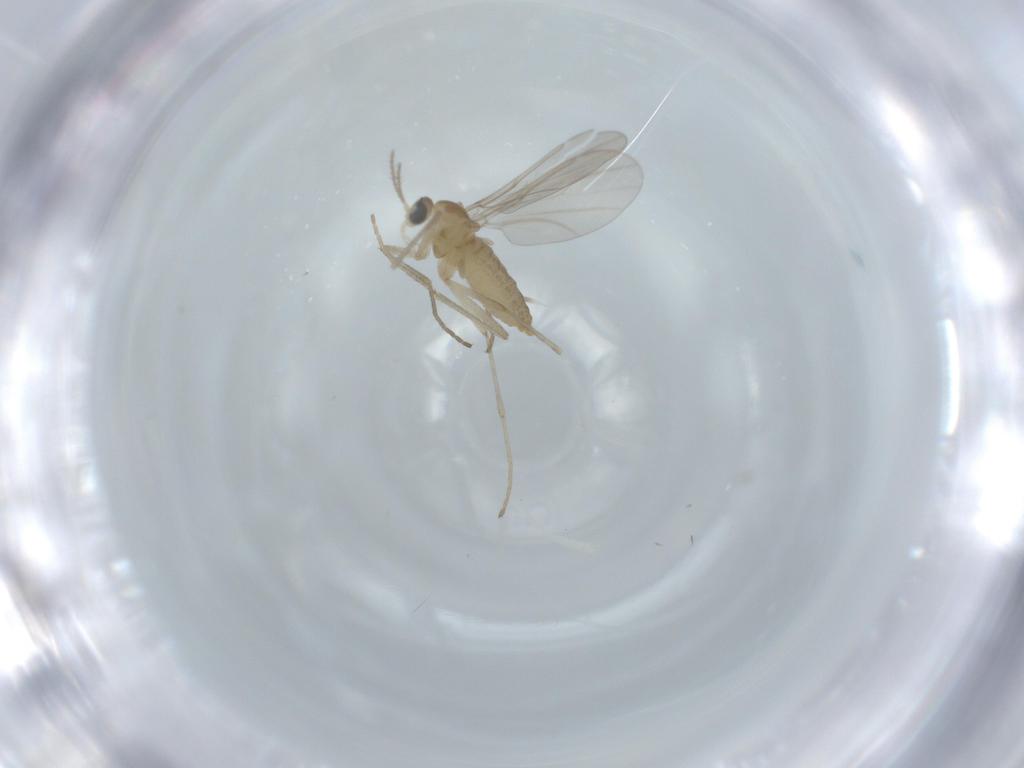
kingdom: Animalia
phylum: Arthropoda
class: Insecta
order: Diptera
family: Cecidomyiidae
